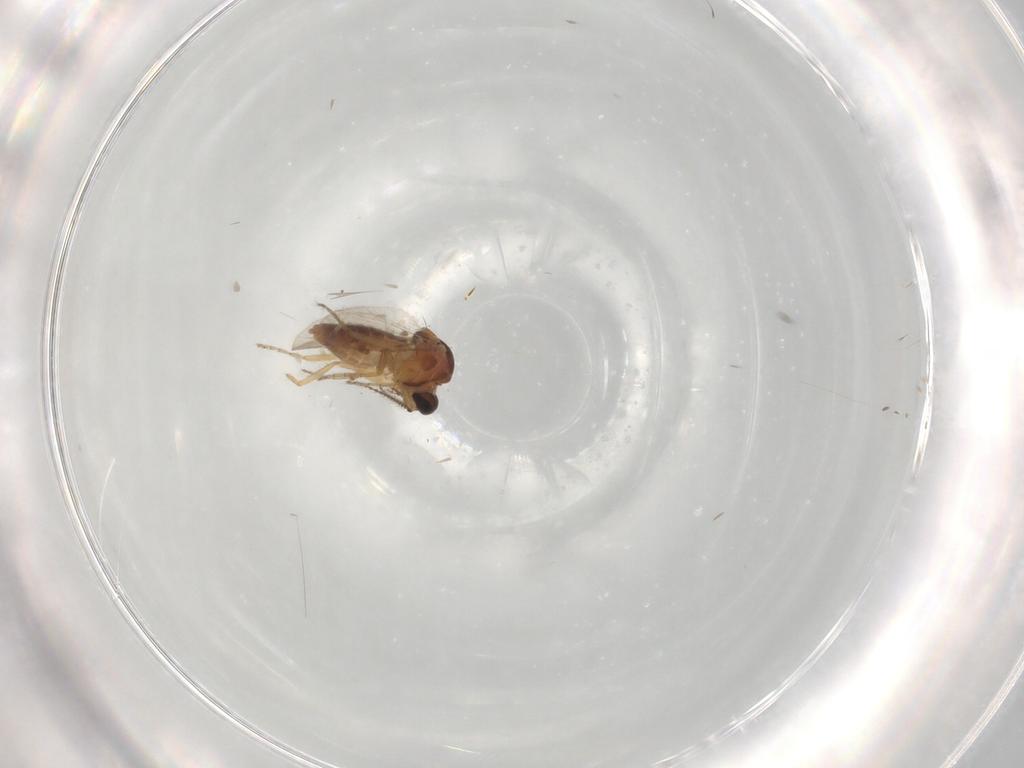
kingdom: Animalia
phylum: Arthropoda
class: Insecta
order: Diptera
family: Ceratopogonidae
